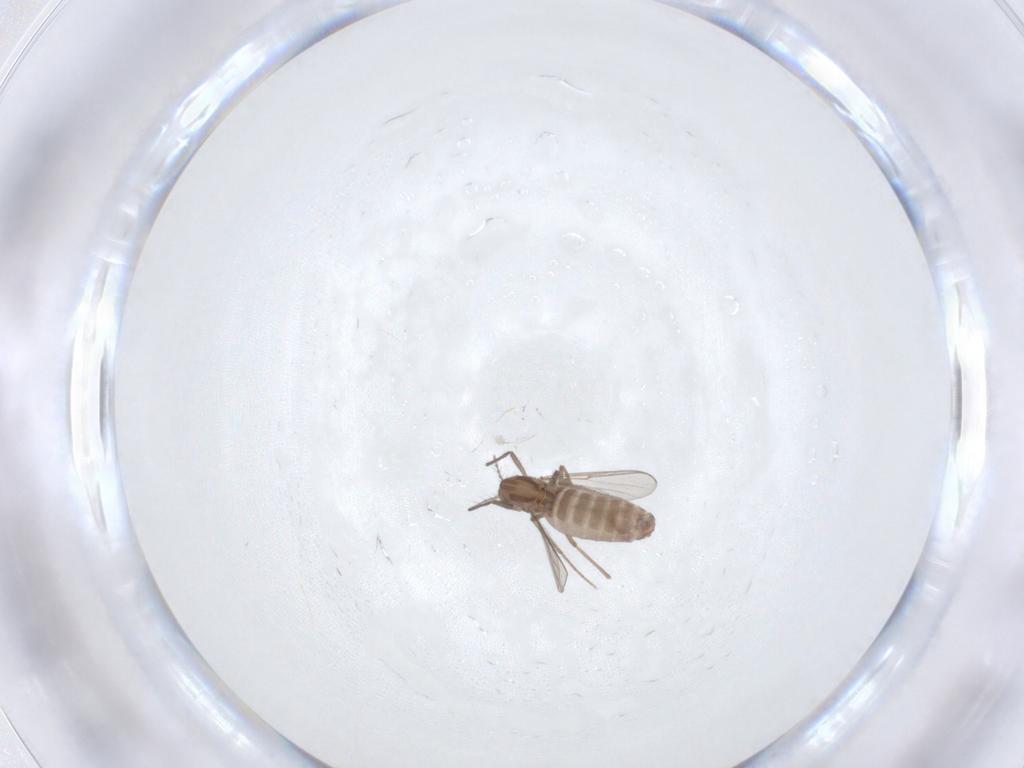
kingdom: Animalia
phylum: Arthropoda
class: Insecta
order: Diptera
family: Chironomidae
